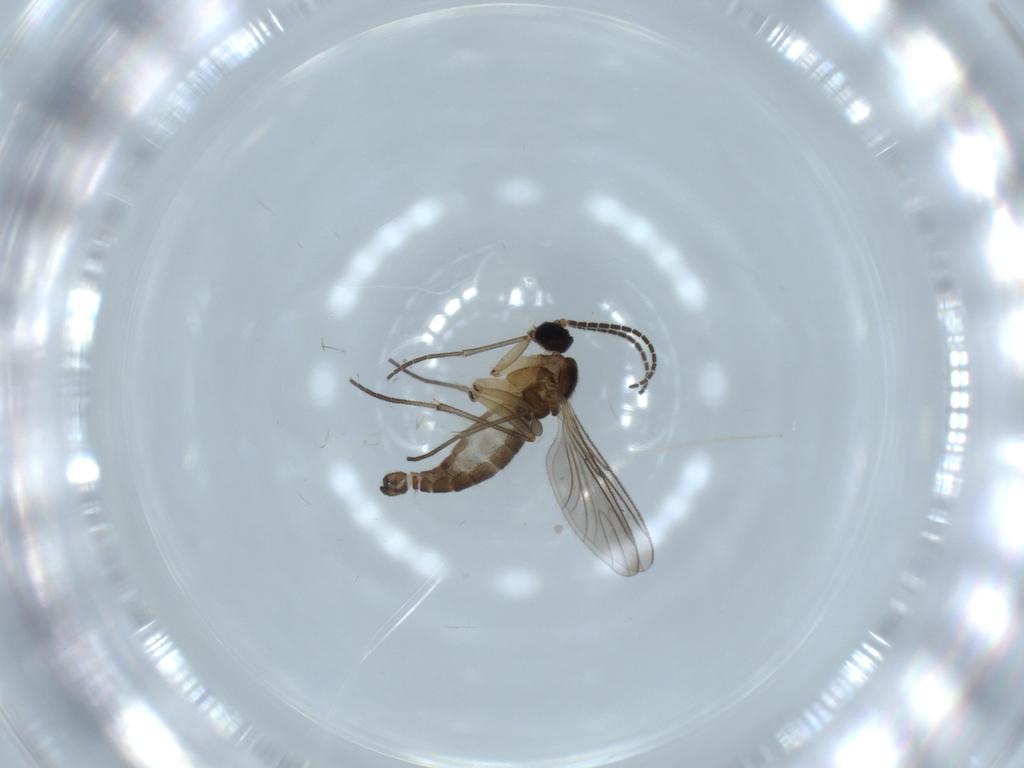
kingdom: Animalia
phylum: Arthropoda
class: Insecta
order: Diptera
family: Sciaridae
